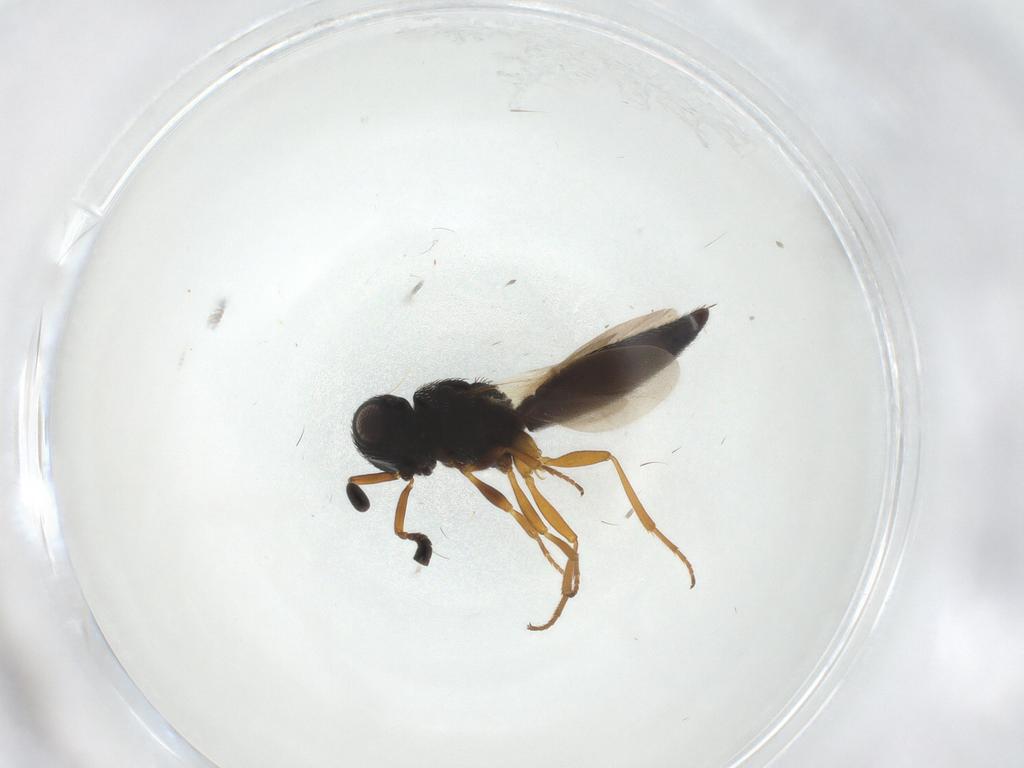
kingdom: Animalia
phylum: Arthropoda
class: Insecta
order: Hymenoptera
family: Scelionidae
